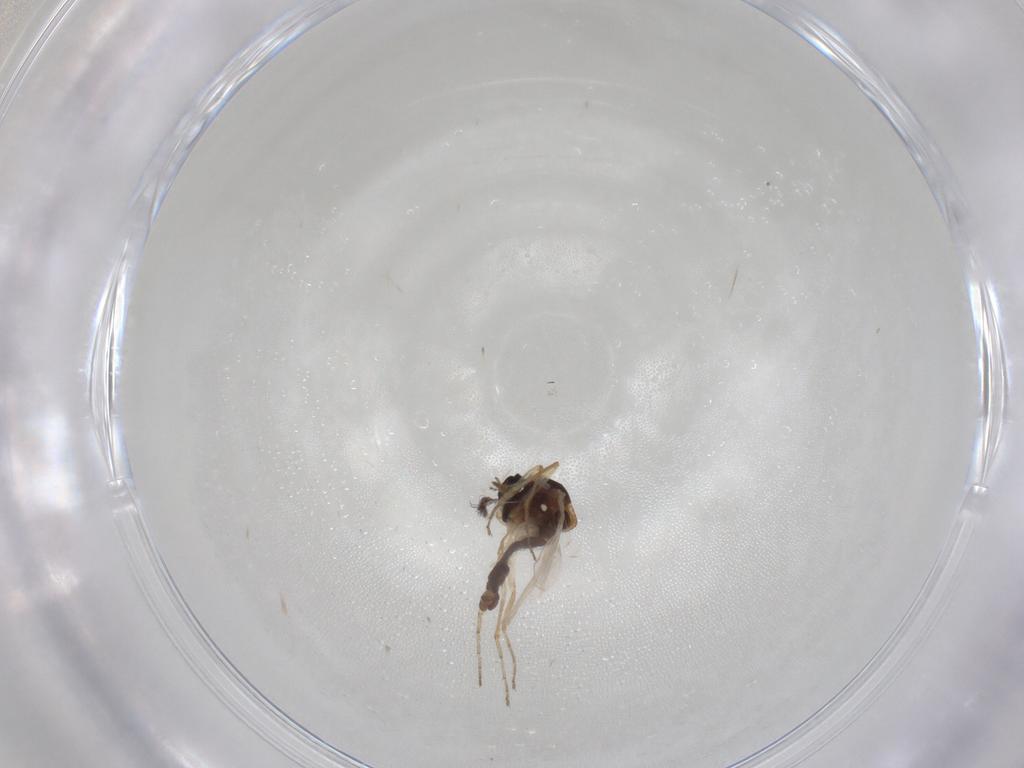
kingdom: Animalia
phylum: Arthropoda
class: Insecta
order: Diptera
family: Ceratopogonidae
